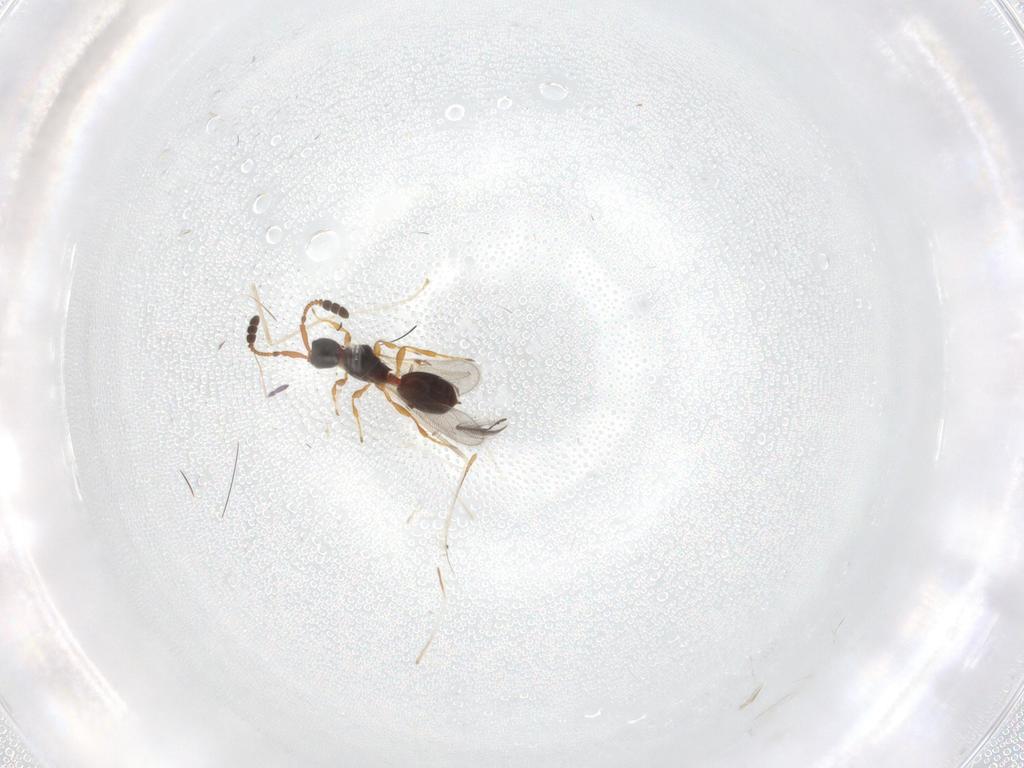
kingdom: Animalia
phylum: Arthropoda
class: Insecta
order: Hymenoptera
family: Diapriidae
